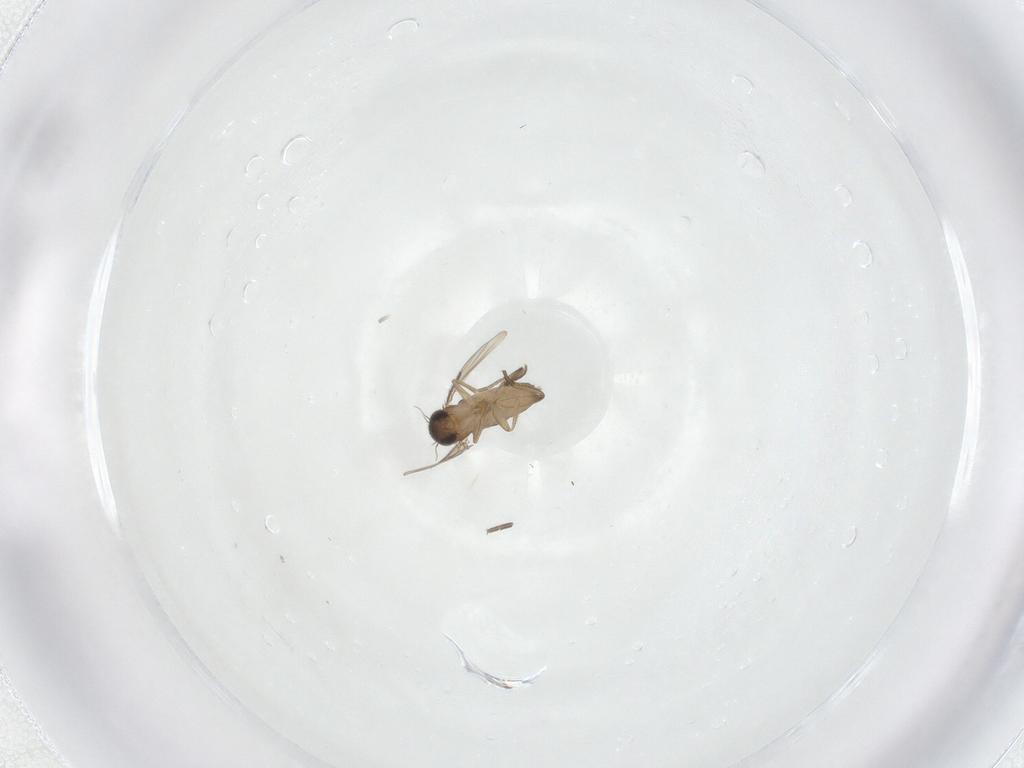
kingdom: Animalia
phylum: Arthropoda
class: Insecta
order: Diptera
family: Phoridae
